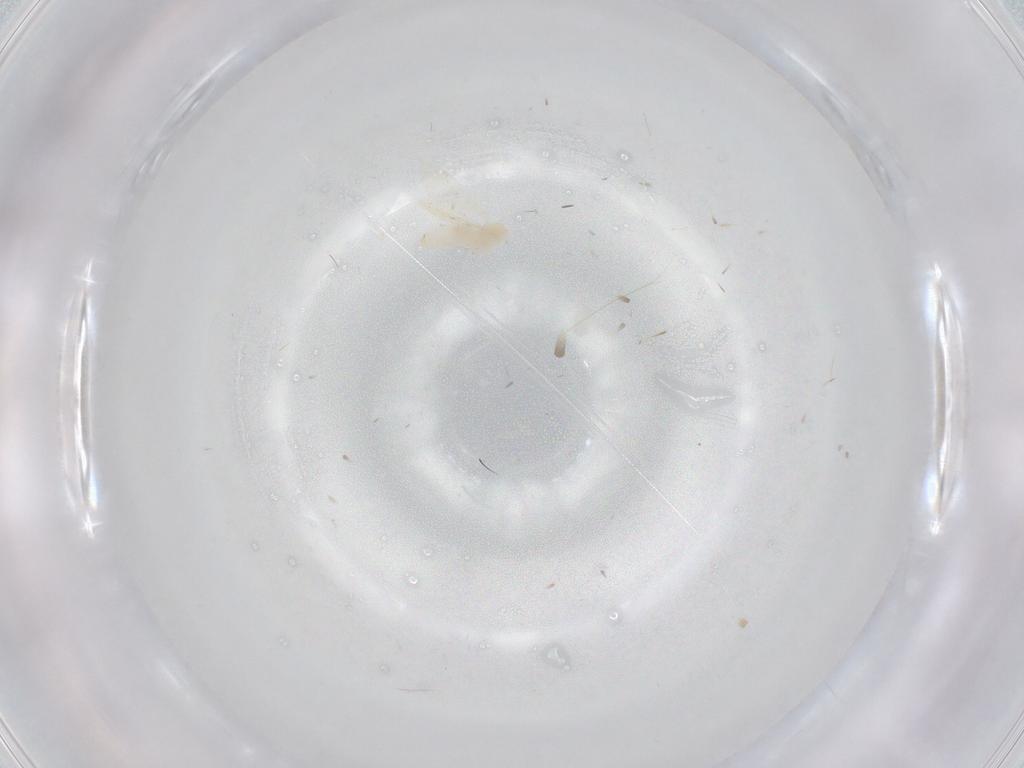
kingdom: Animalia
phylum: Arthropoda
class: Insecta
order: Diptera
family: Cecidomyiidae
